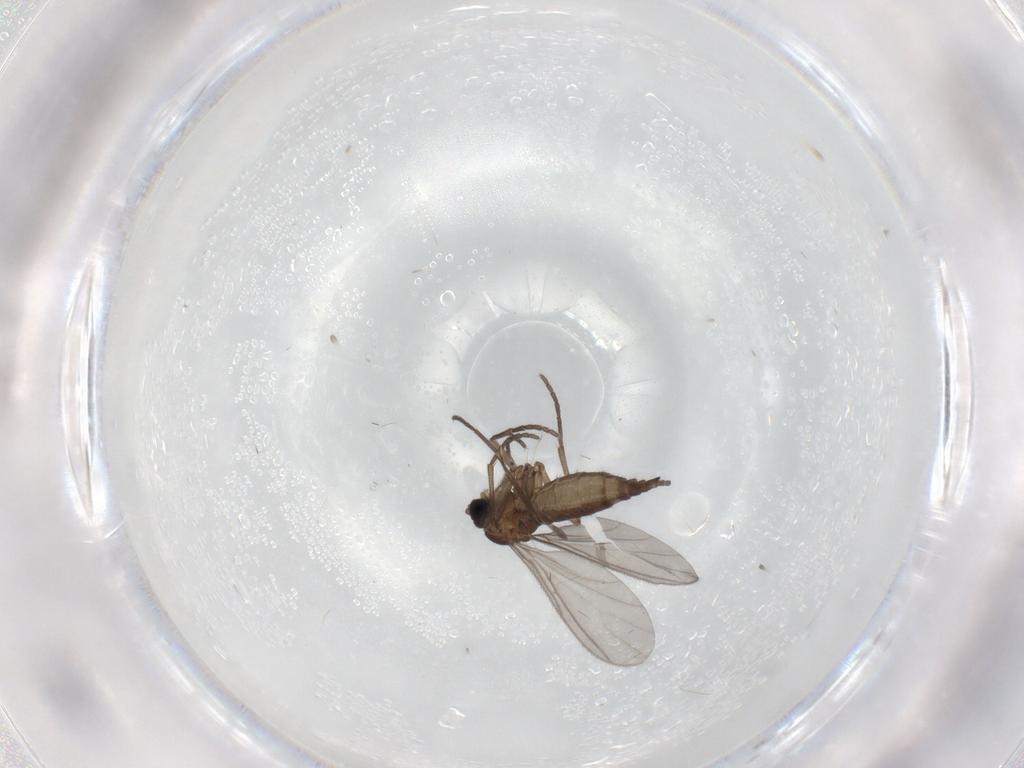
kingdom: Animalia
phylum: Arthropoda
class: Insecta
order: Diptera
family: Sciaridae
